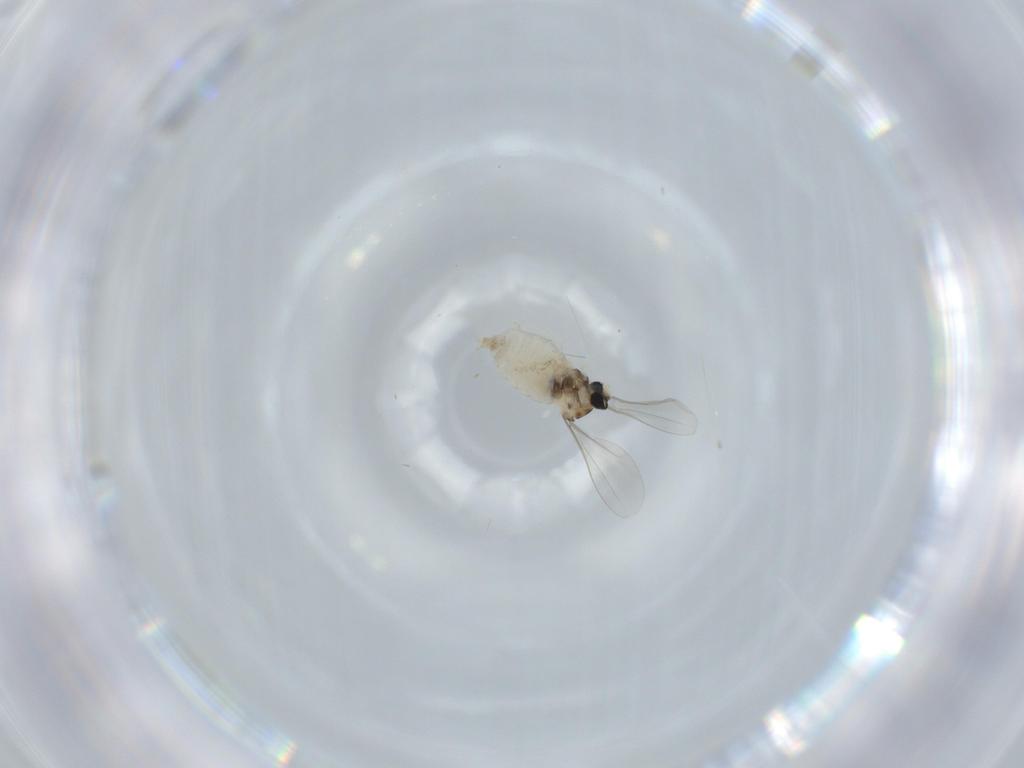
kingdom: Animalia
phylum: Arthropoda
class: Insecta
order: Diptera
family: Cecidomyiidae
